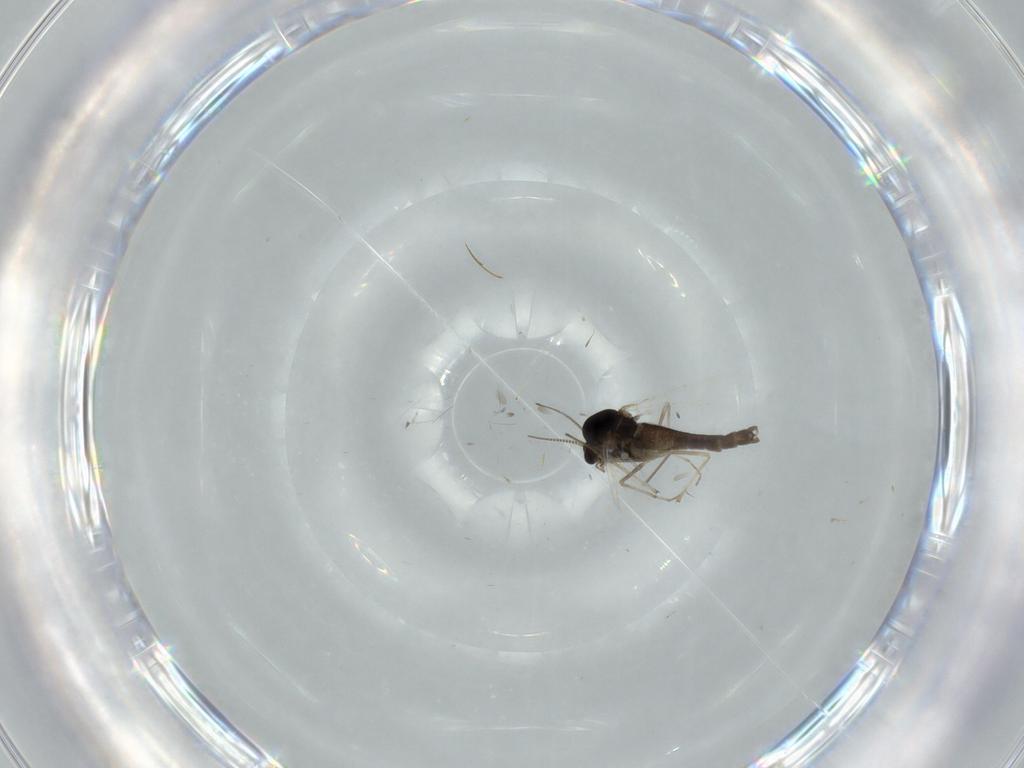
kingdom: Animalia
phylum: Arthropoda
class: Insecta
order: Diptera
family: Chironomidae
